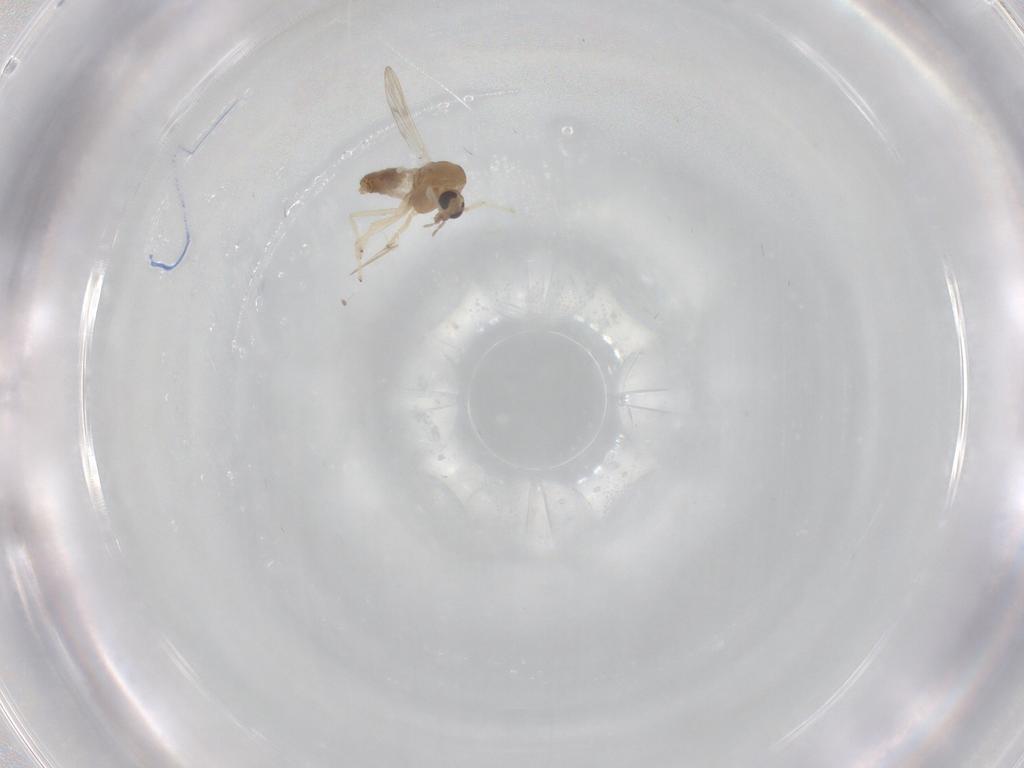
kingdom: Animalia
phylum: Arthropoda
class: Insecta
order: Diptera
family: Chironomidae
